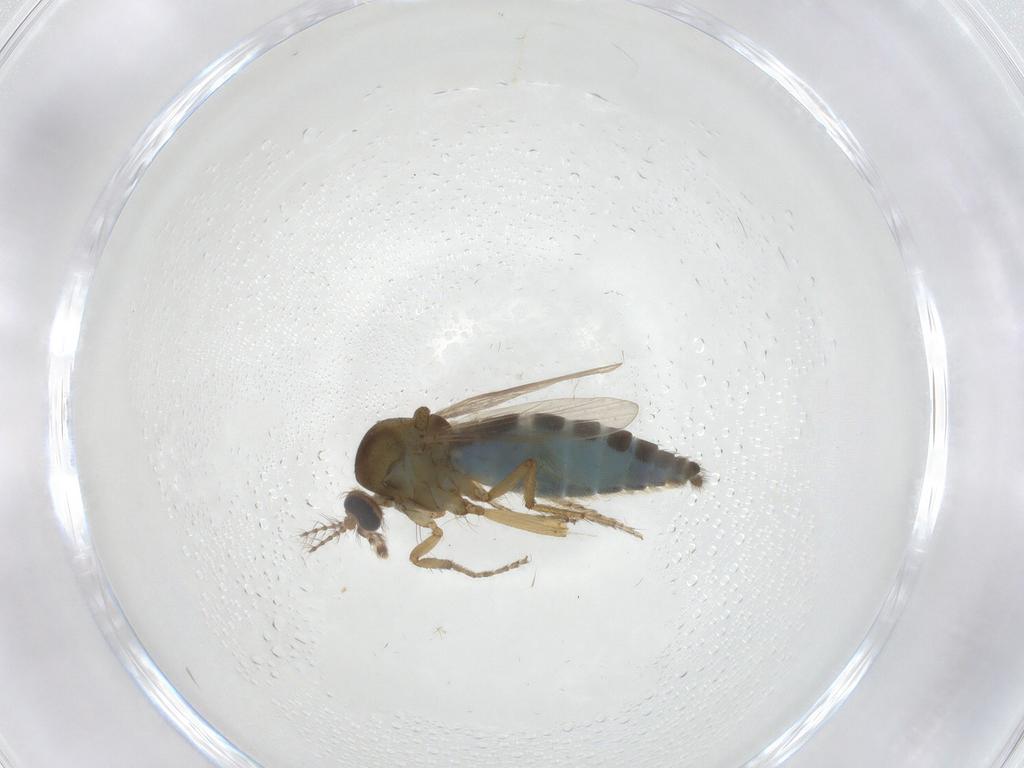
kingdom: Animalia
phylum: Arthropoda
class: Insecta
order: Diptera
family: Ceratopogonidae
